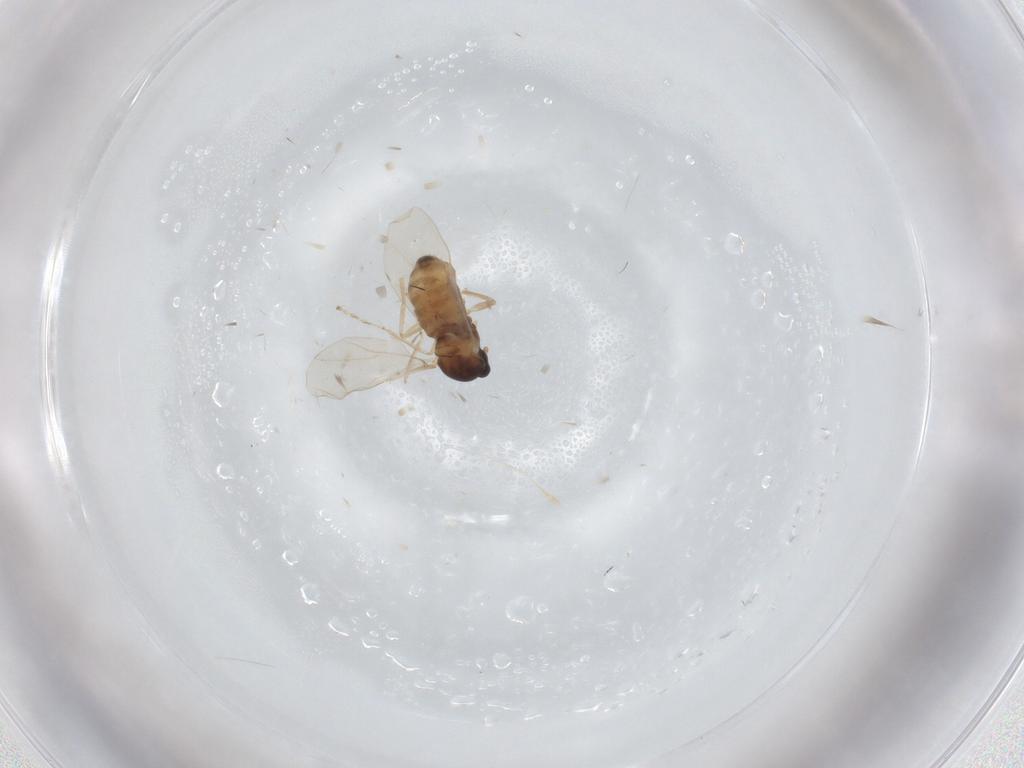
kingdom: Animalia
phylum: Arthropoda
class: Insecta
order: Diptera
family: Cecidomyiidae
